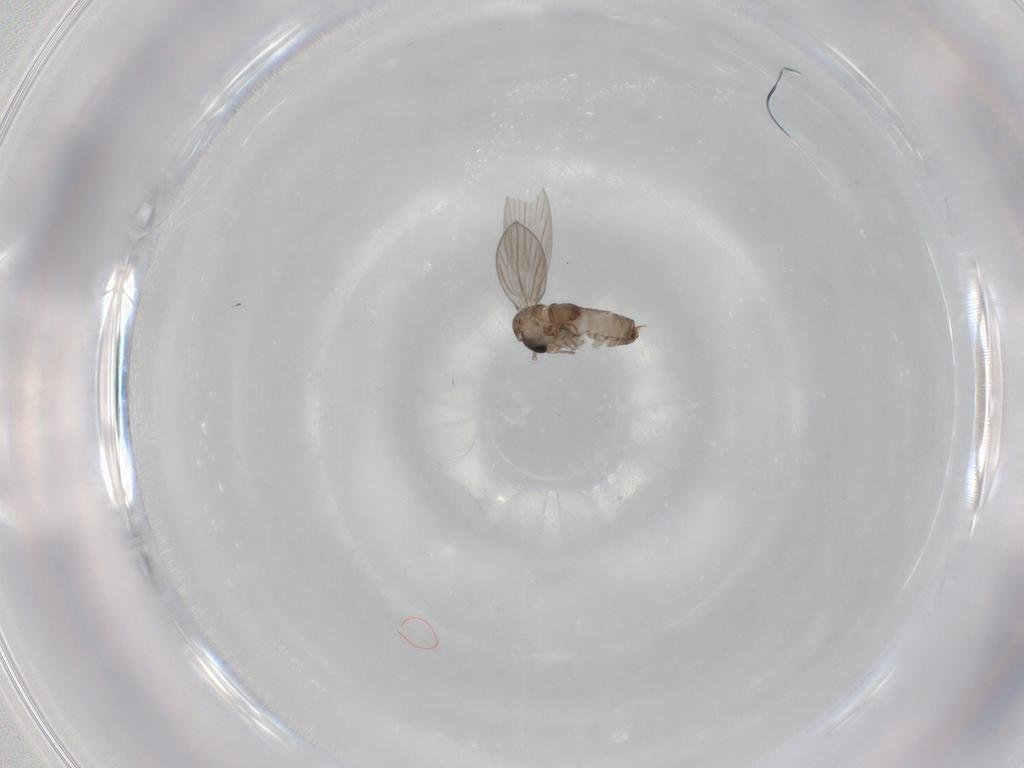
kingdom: Animalia
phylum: Arthropoda
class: Insecta
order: Diptera
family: Psychodidae
